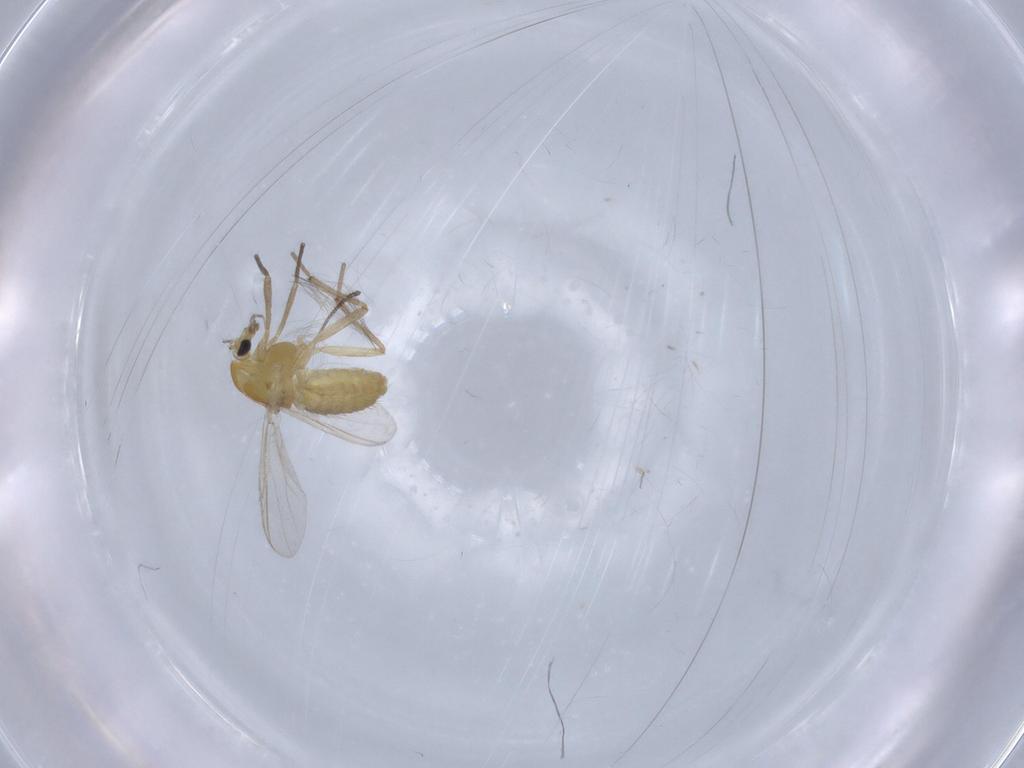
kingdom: Animalia
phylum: Arthropoda
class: Insecta
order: Diptera
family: Chironomidae
